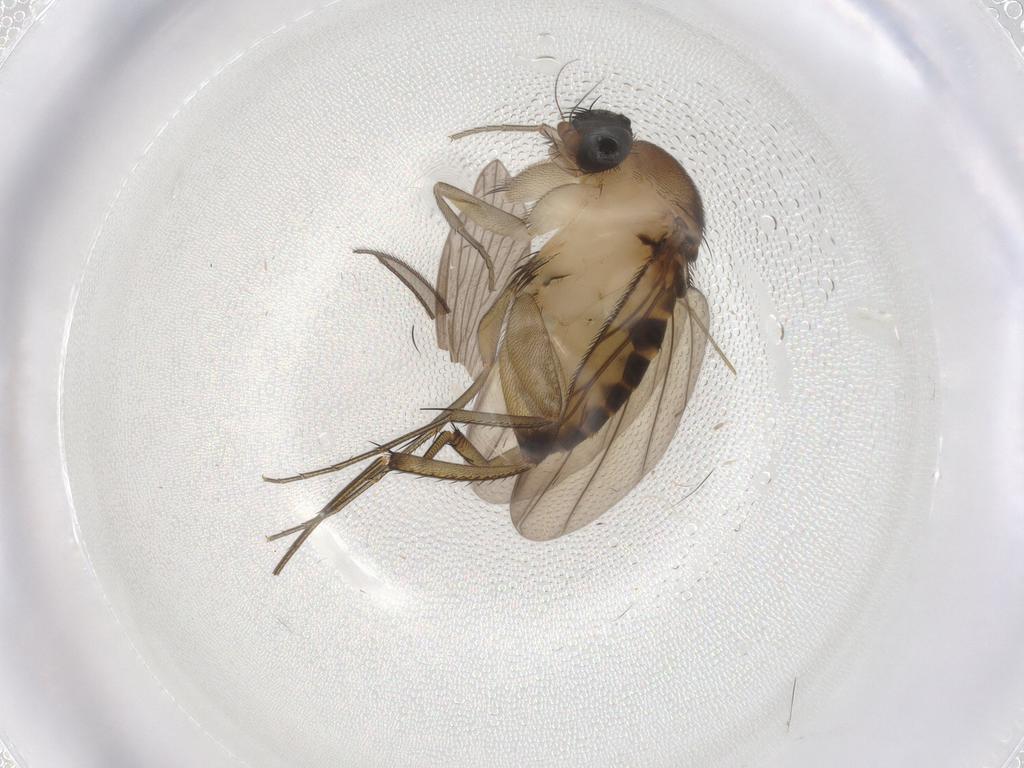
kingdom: Animalia
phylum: Arthropoda
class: Insecta
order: Diptera
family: Phoridae
